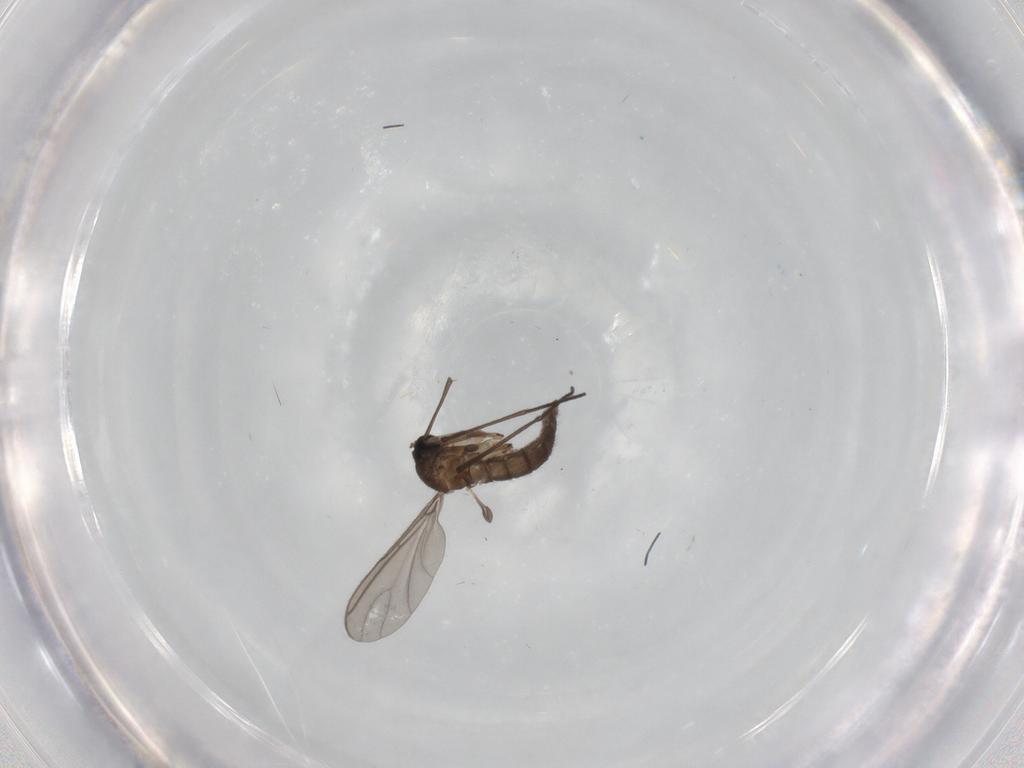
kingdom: Animalia
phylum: Arthropoda
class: Insecta
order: Diptera
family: Sciaridae
